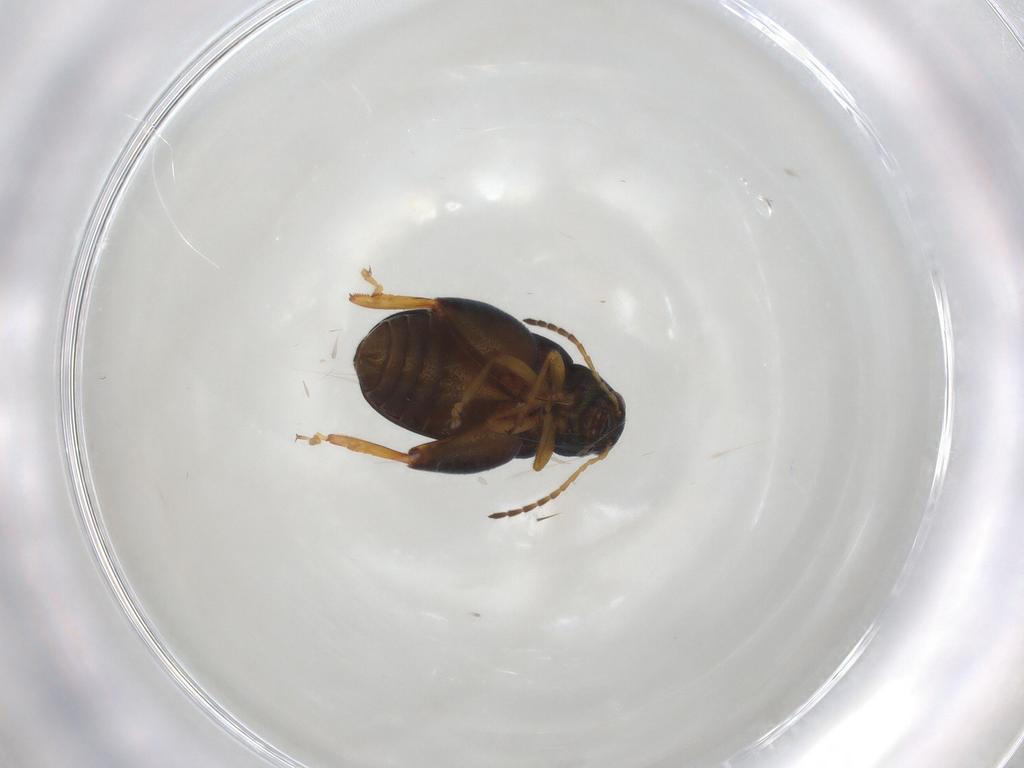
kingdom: Animalia
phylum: Arthropoda
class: Insecta
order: Coleoptera
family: Chrysomelidae
